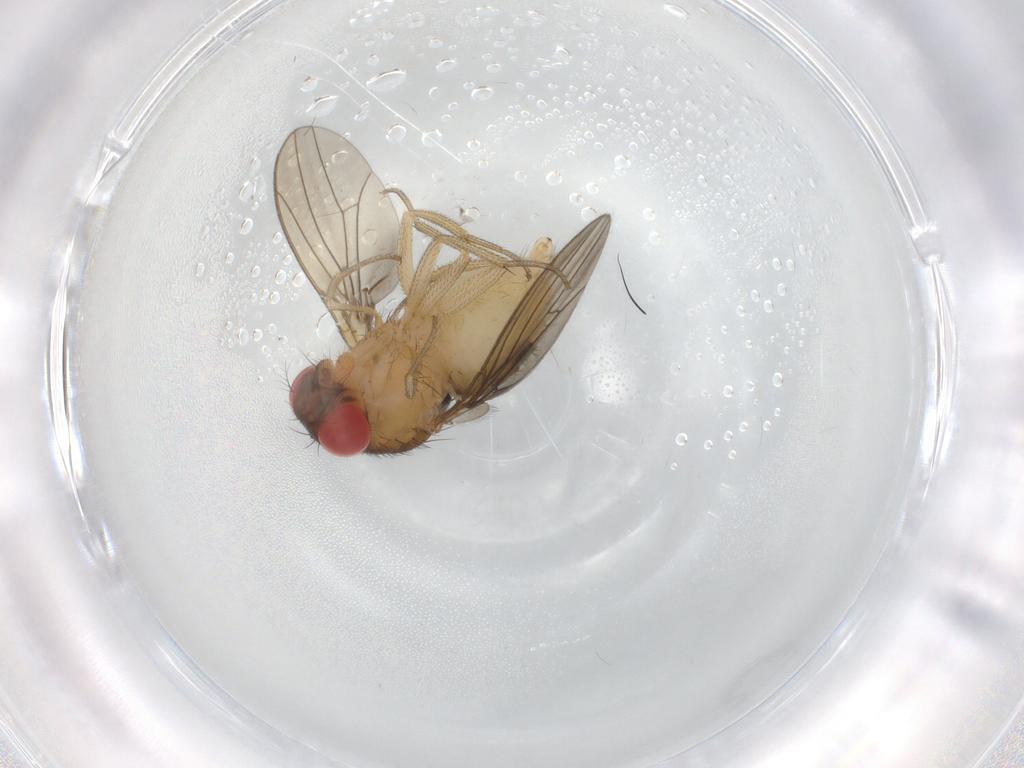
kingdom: Animalia
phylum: Arthropoda
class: Insecta
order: Diptera
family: Drosophilidae
